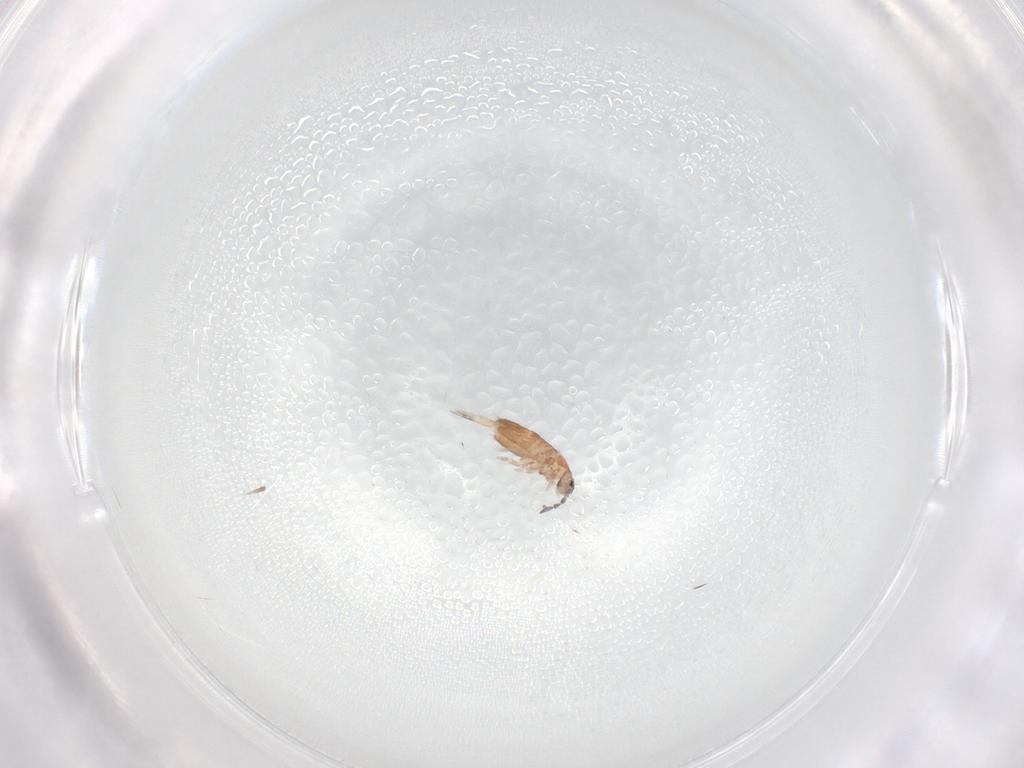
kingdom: Animalia
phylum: Arthropoda
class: Collembola
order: Entomobryomorpha
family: Entomobryidae
